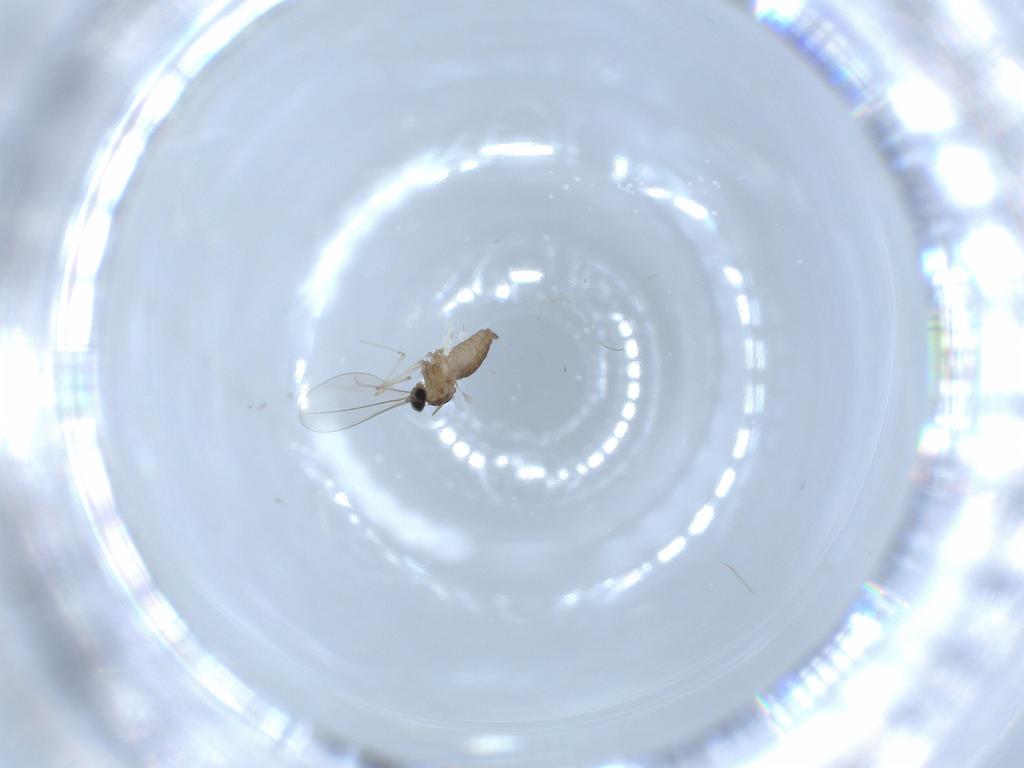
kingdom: Animalia
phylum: Arthropoda
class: Insecta
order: Diptera
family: Cecidomyiidae
